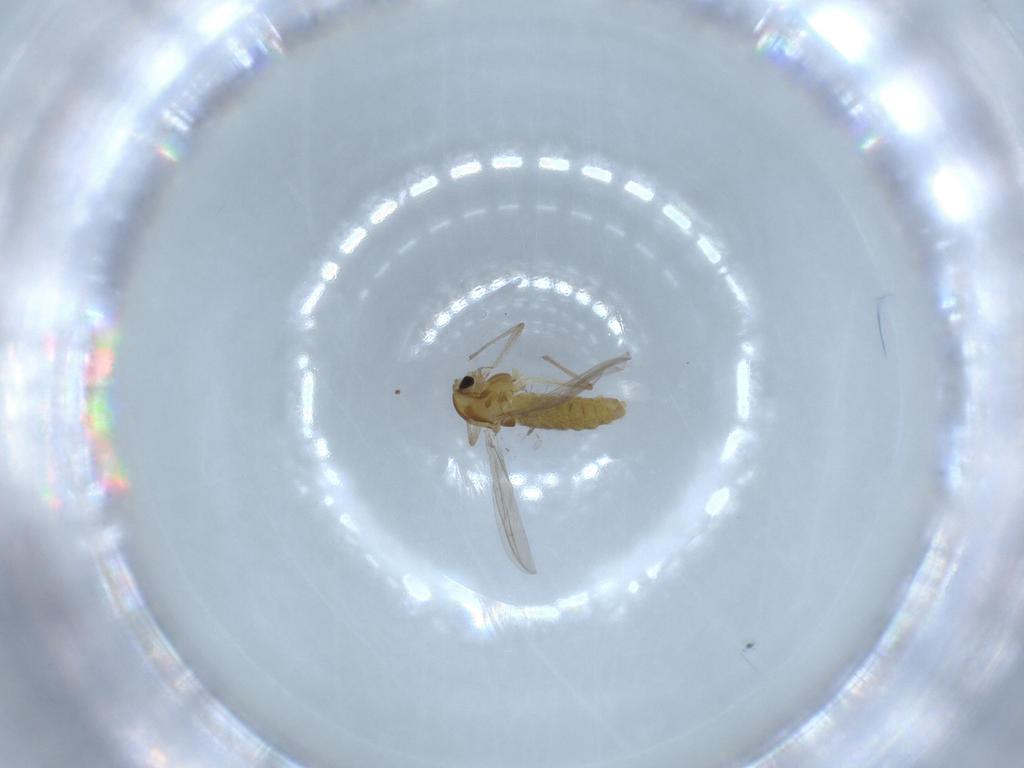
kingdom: Animalia
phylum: Arthropoda
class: Insecta
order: Diptera
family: Chironomidae
